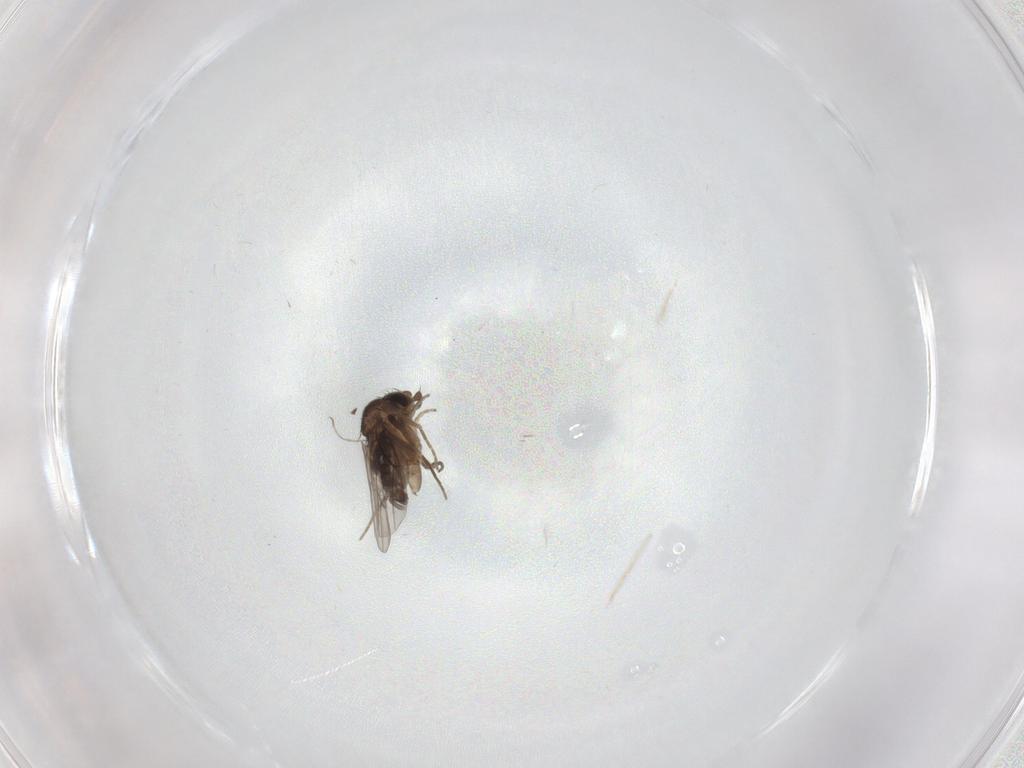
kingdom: Animalia
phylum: Arthropoda
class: Insecta
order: Diptera
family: Phoridae
